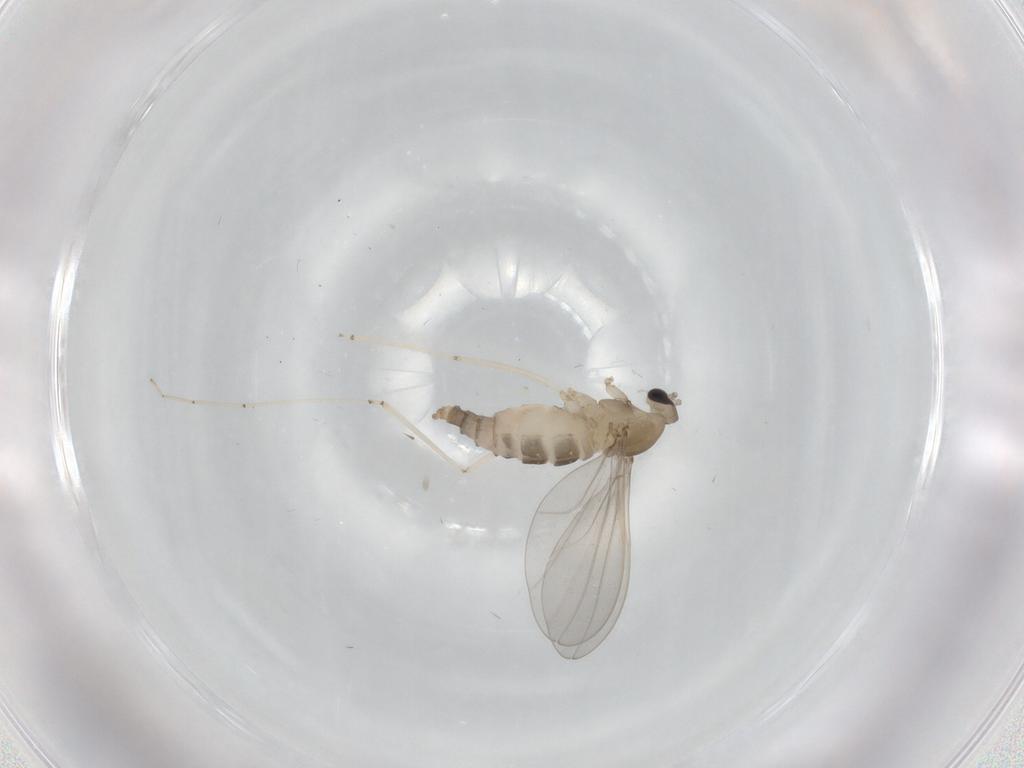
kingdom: Animalia
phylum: Arthropoda
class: Insecta
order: Diptera
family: Cecidomyiidae
